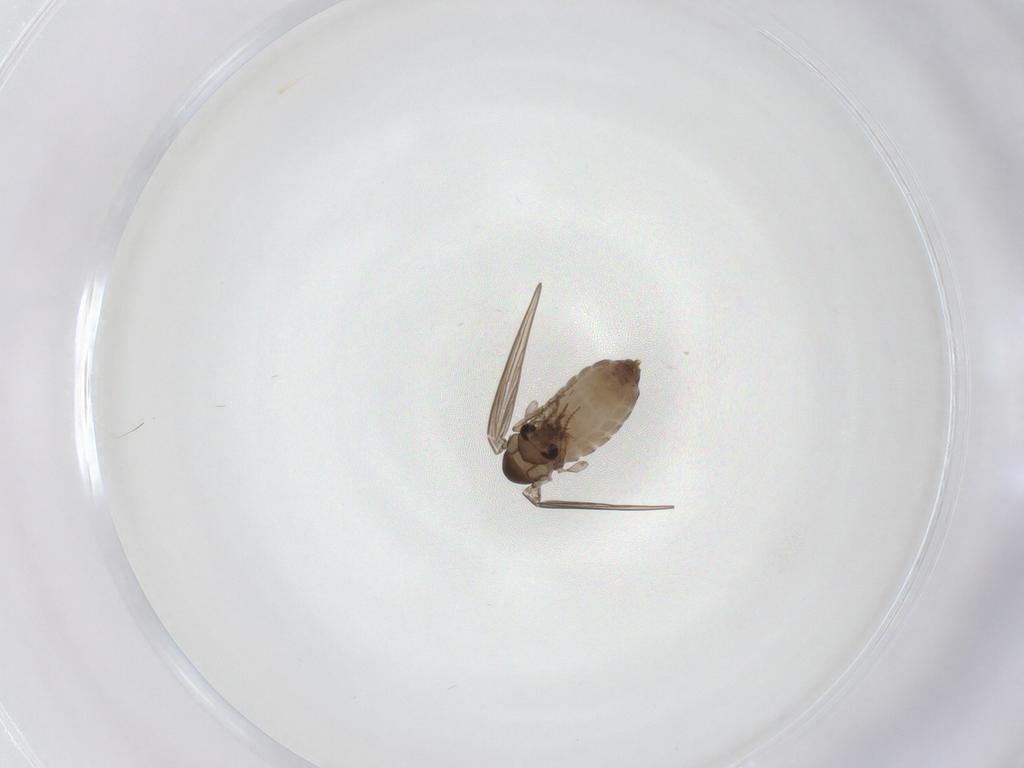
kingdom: Animalia
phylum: Arthropoda
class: Insecta
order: Diptera
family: Psychodidae
